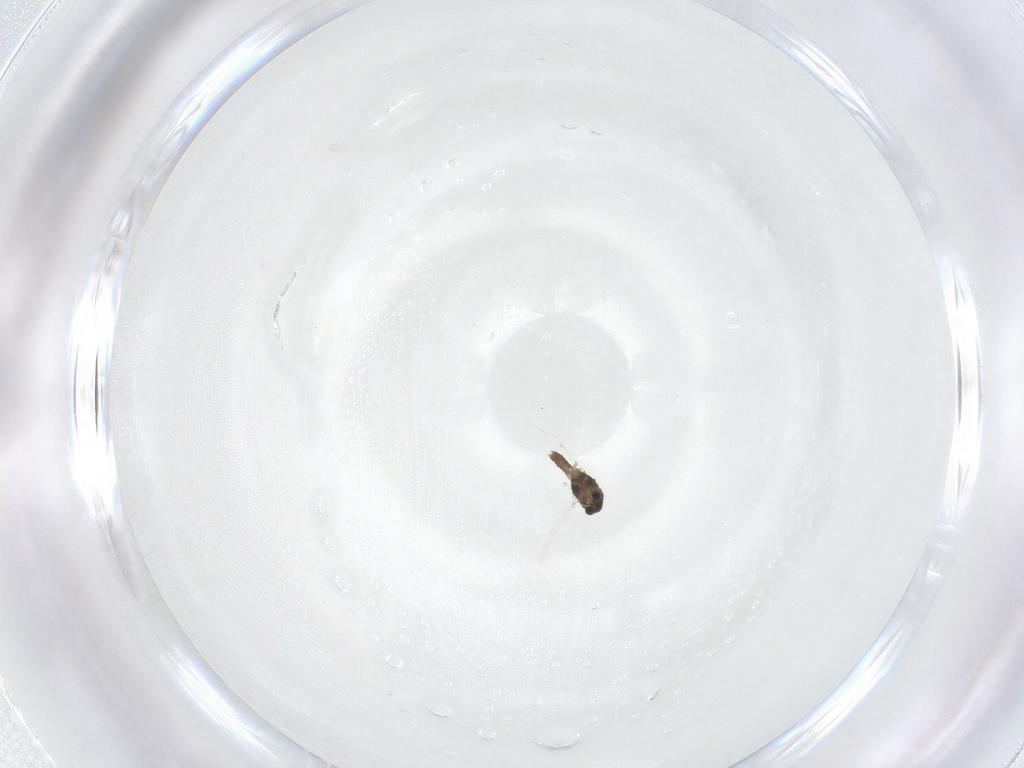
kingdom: Animalia
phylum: Arthropoda
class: Insecta
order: Diptera
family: Chironomidae
